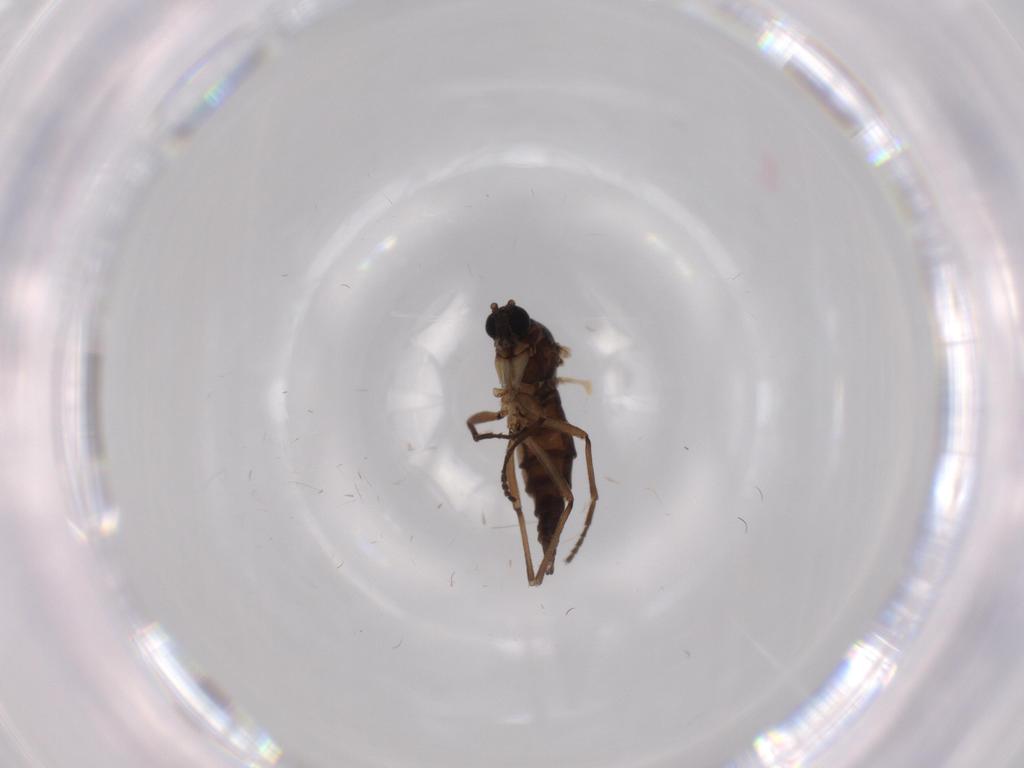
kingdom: Animalia
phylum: Arthropoda
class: Insecta
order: Diptera
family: Sciaridae
